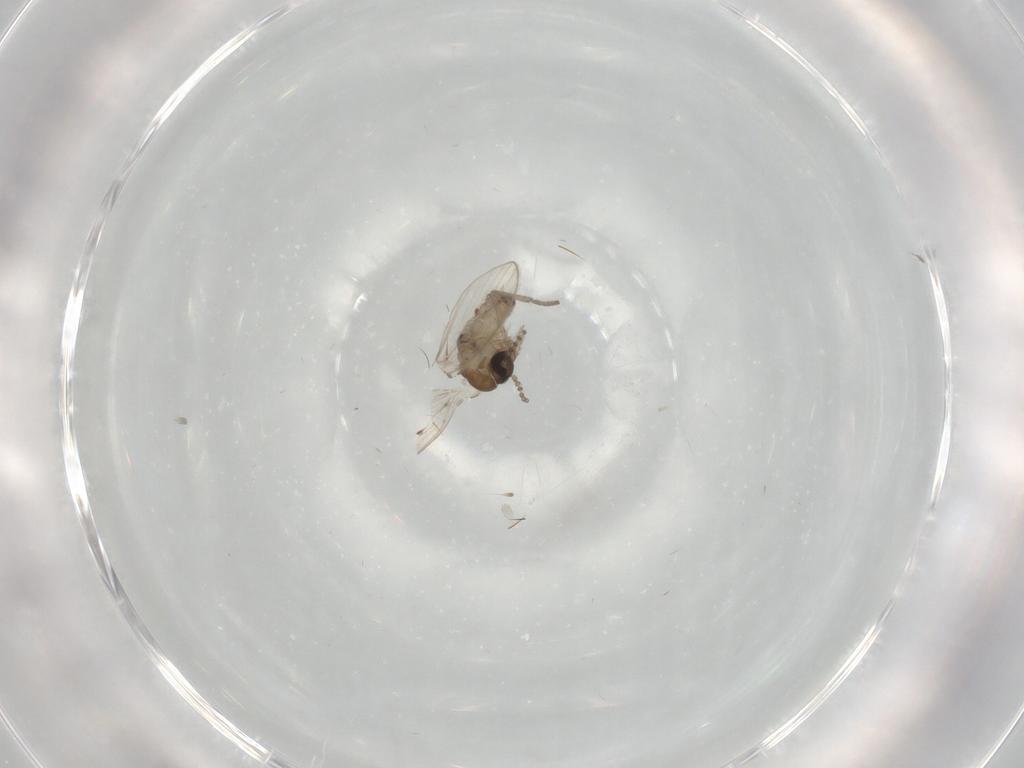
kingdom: Animalia
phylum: Arthropoda
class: Insecta
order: Diptera
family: Psychodidae
